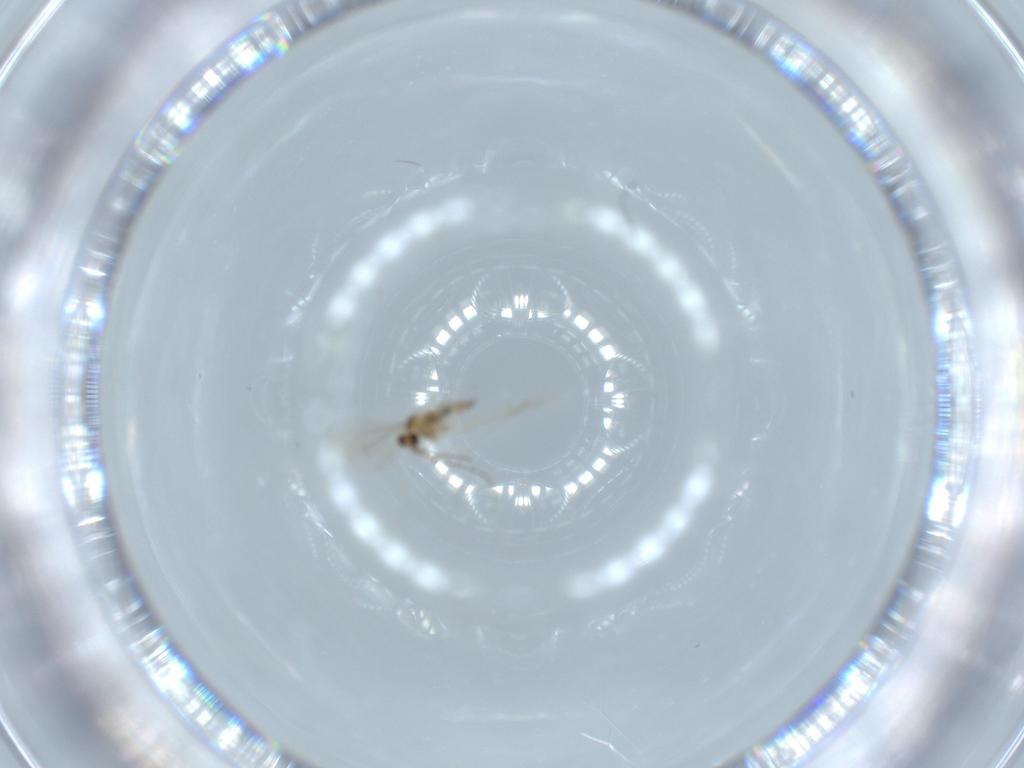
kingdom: Animalia
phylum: Arthropoda
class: Insecta
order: Diptera
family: Cecidomyiidae
